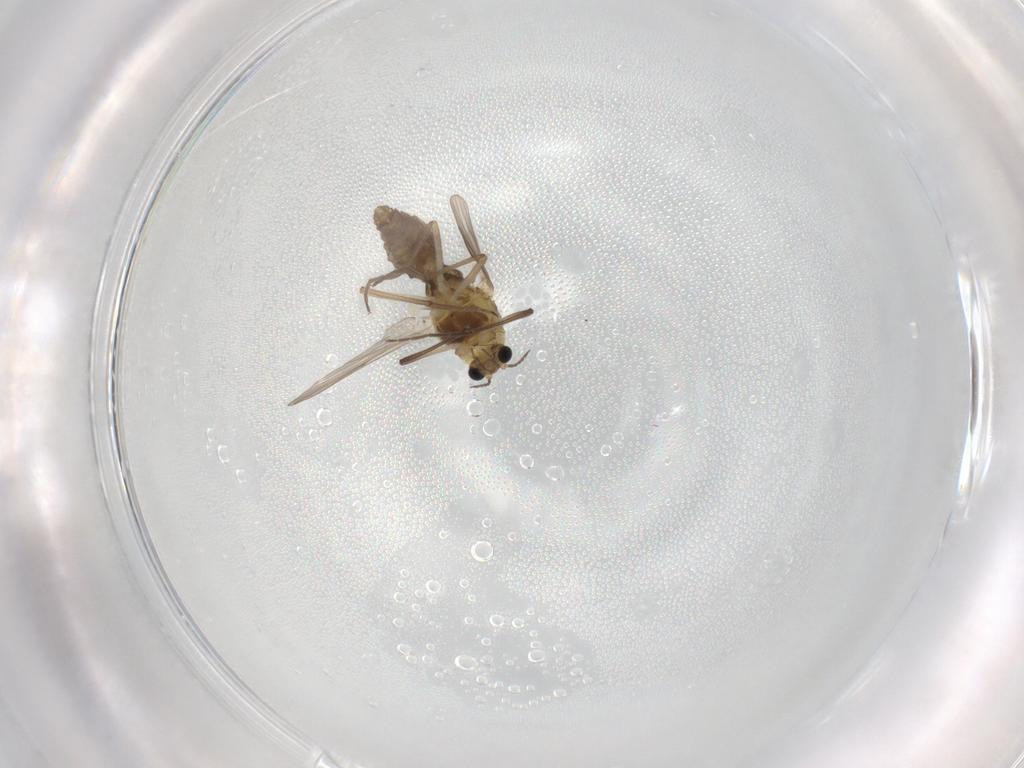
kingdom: Animalia
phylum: Arthropoda
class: Insecta
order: Diptera
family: Chironomidae
